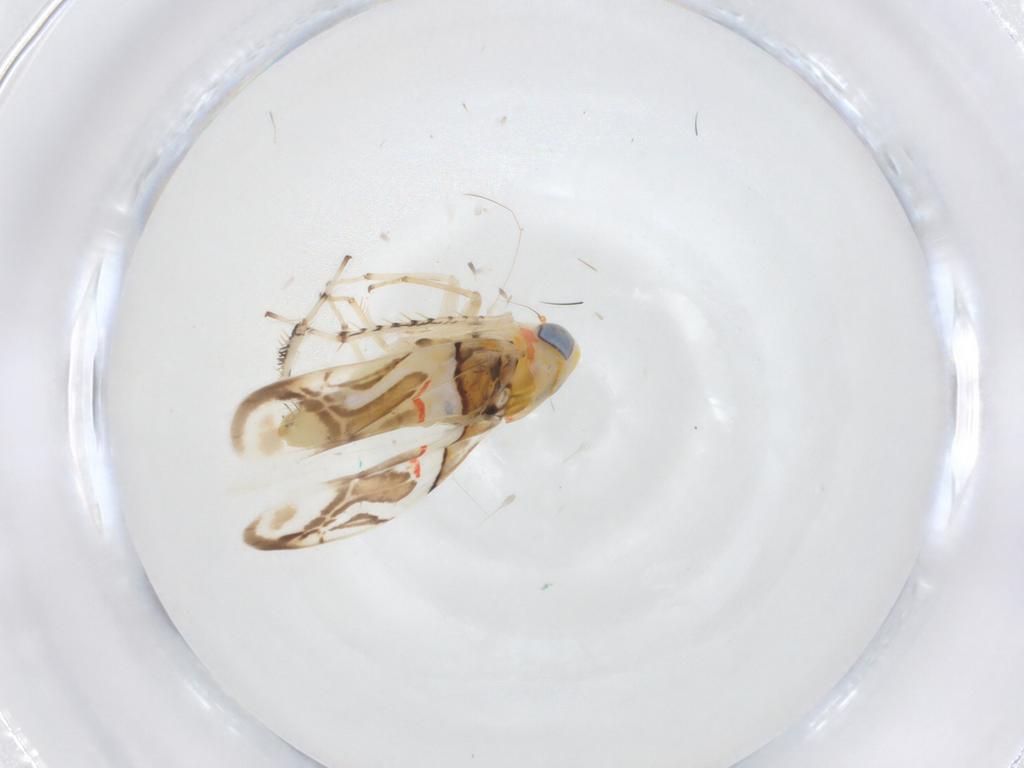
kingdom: Animalia
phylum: Arthropoda
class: Insecta
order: Hemiptera
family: Cicadellidae
